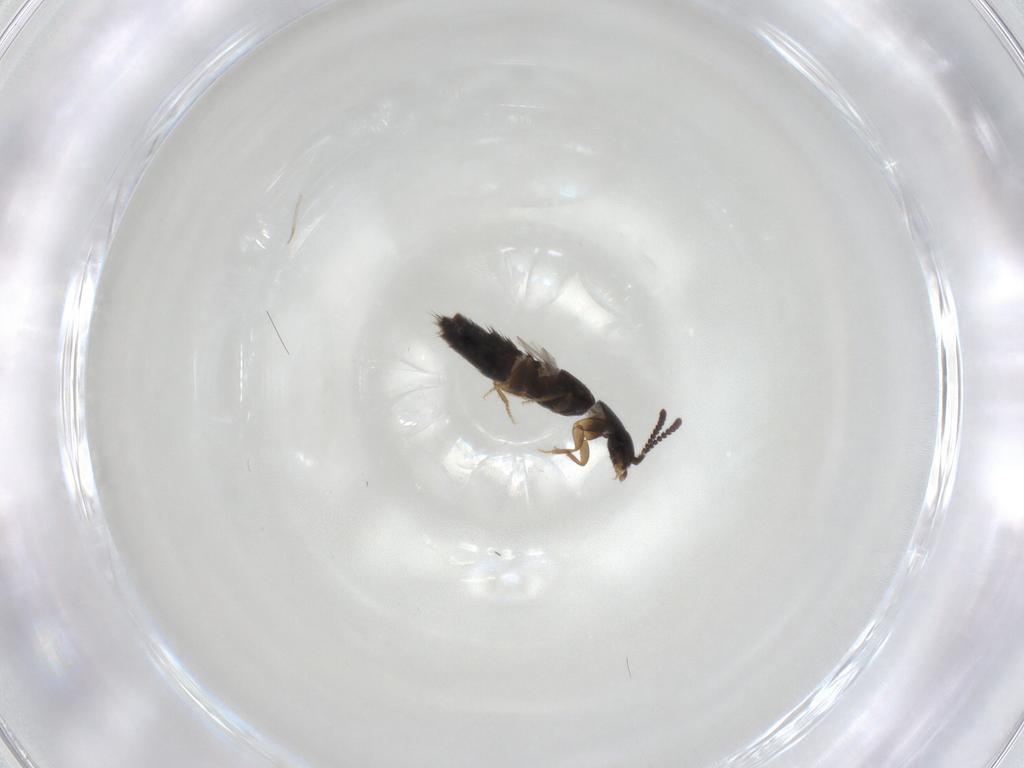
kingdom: Animalia
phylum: Arthropoda
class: Insecta
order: Coleoptera
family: Staphylinidae
